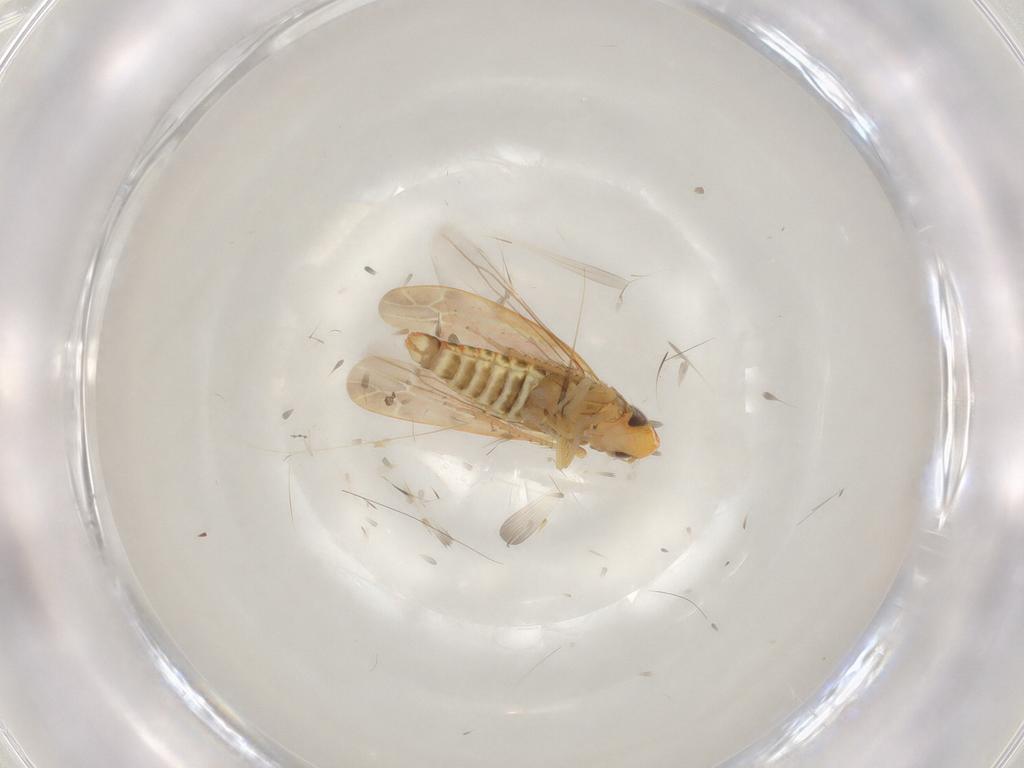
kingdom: Animalia
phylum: Arthropoda
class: Insecta
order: Hemiptera
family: Cicadellidae
